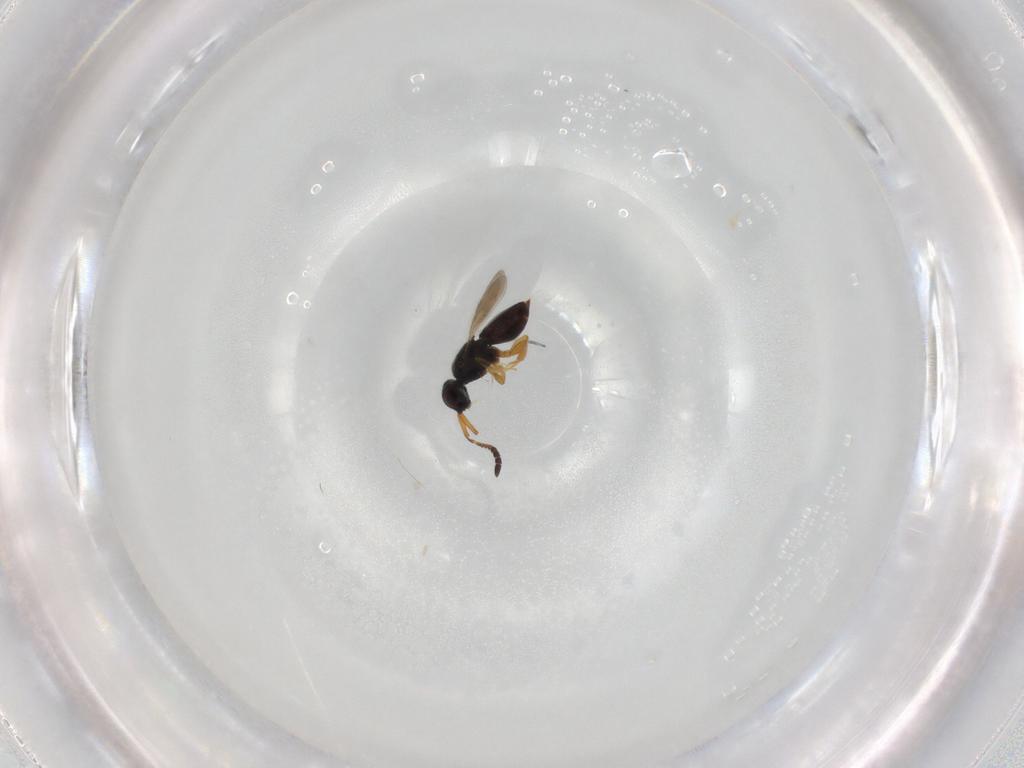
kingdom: Animalia
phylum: Arthropoda
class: Insecta
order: Hymenoptera
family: Ceraphronidae
